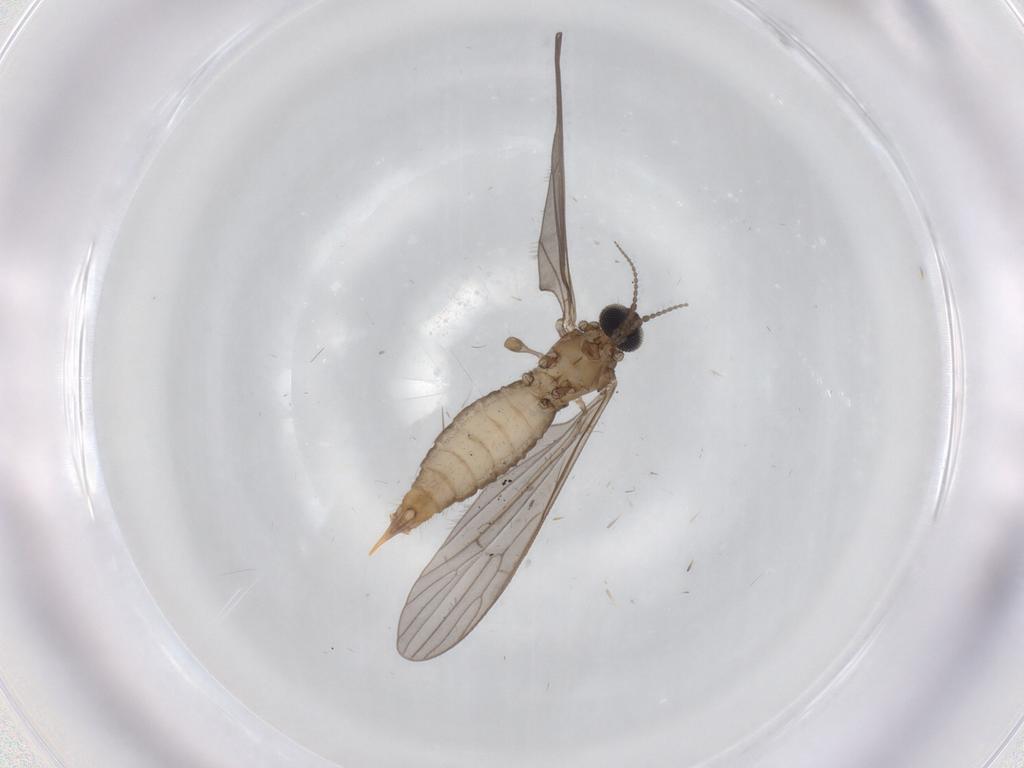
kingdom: Animalia
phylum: Arthropoda
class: Insecta
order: Diptera
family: Limoniidae
